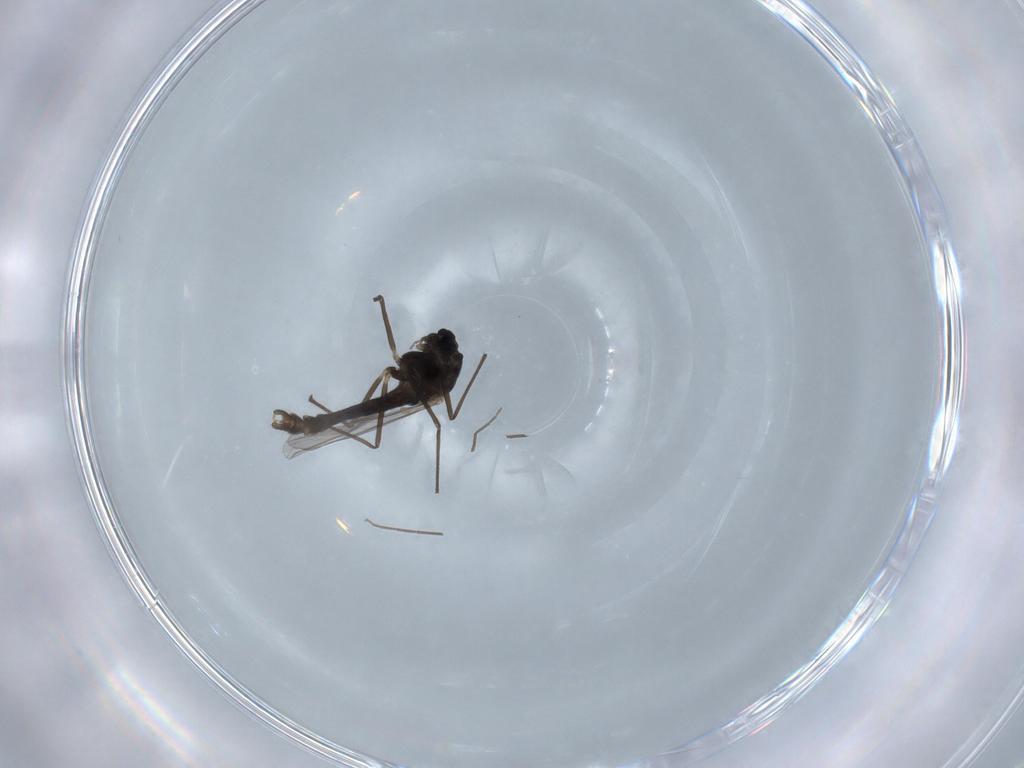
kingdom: Animalia
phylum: Arthropoda
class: Insecta
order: Diptera
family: Chironomidae
